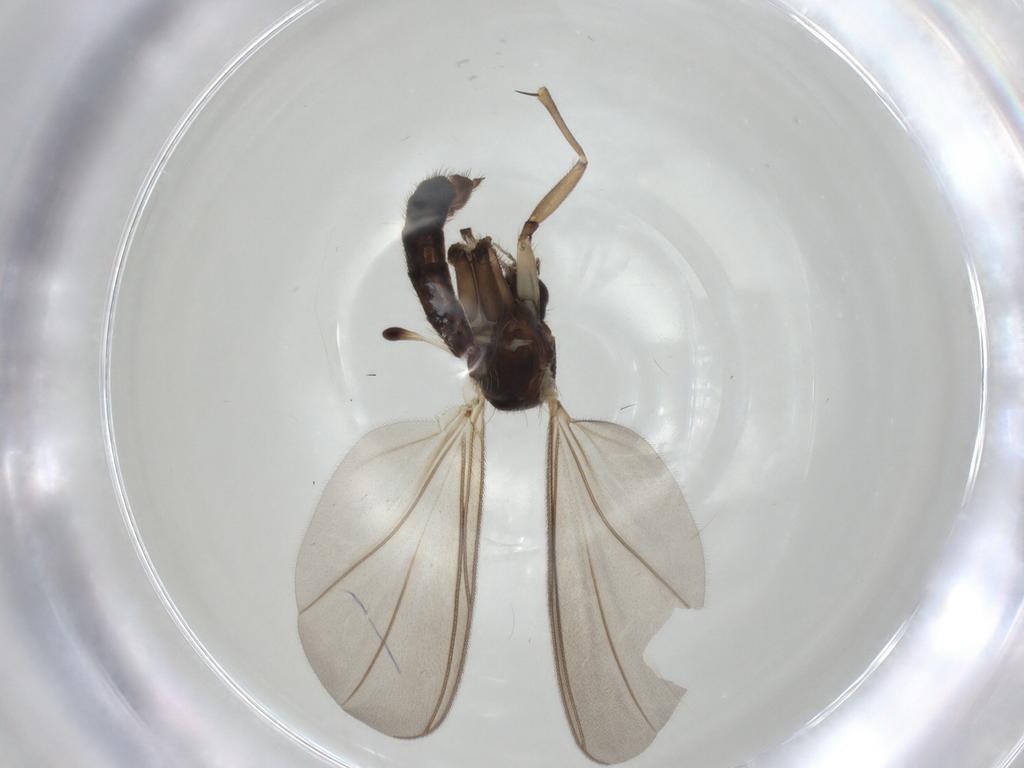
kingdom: Animalia
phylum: Arthropoda
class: Insecta
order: Diptera
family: Mycetophilidae
